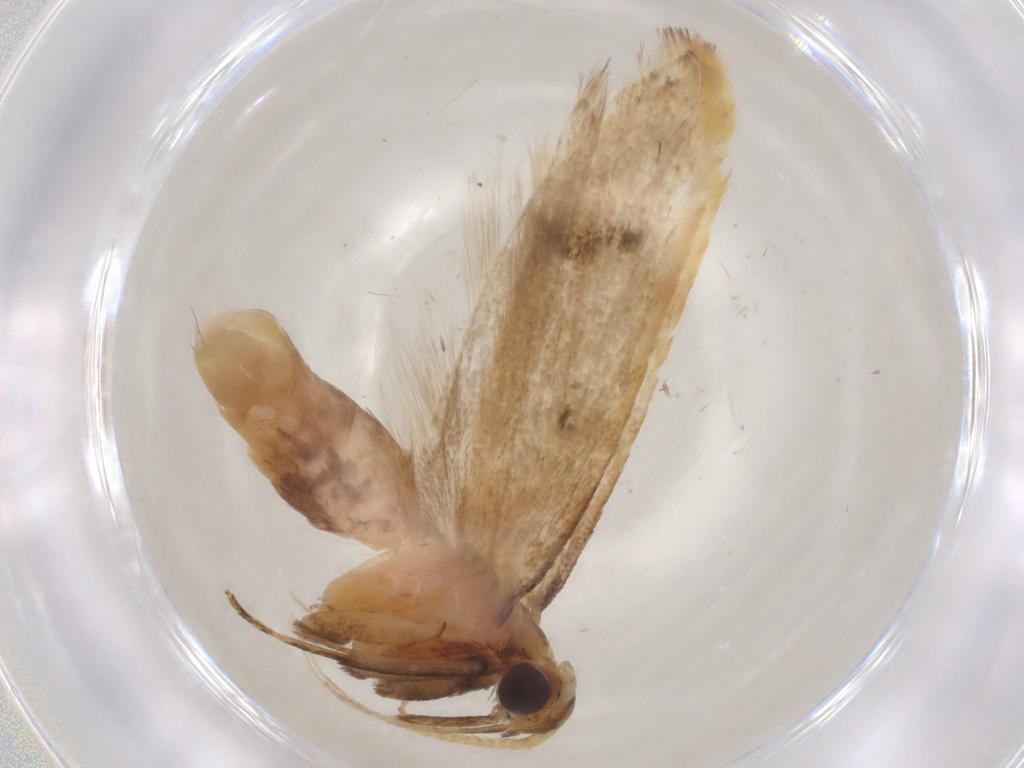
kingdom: Animalia
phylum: Arthropoda
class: Insecta
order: Lepidoptera
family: Lecithoceridae
